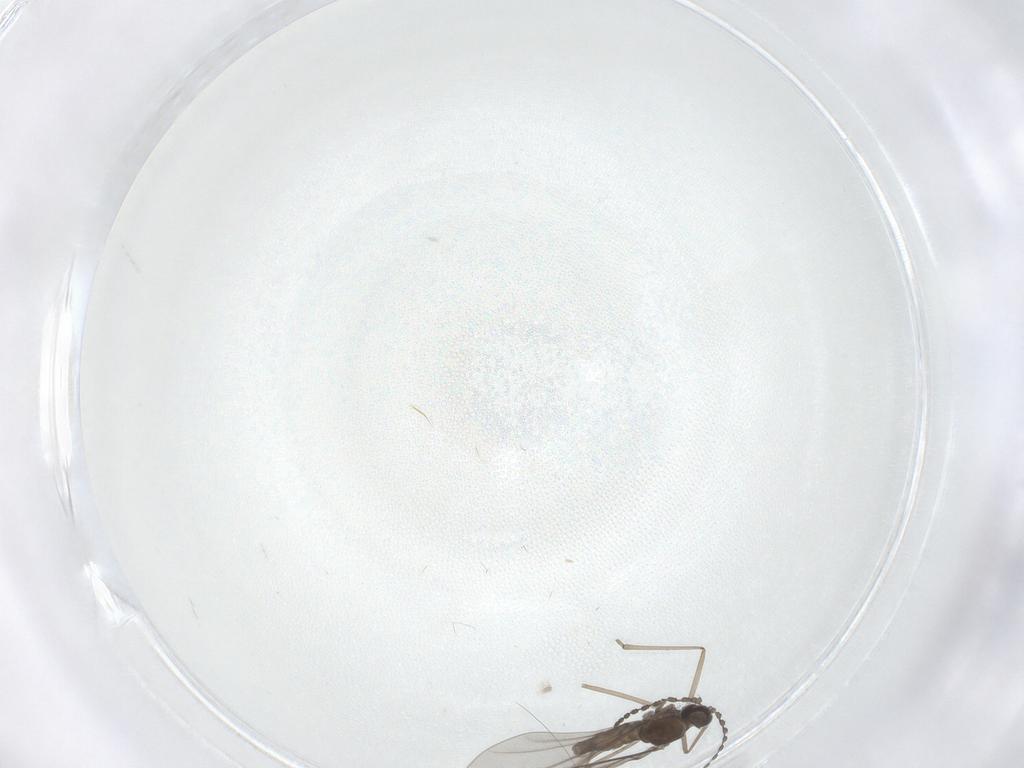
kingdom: Animalia
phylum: Arthropoda
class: Insecta
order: Diptera
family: Cecidomyiidae
